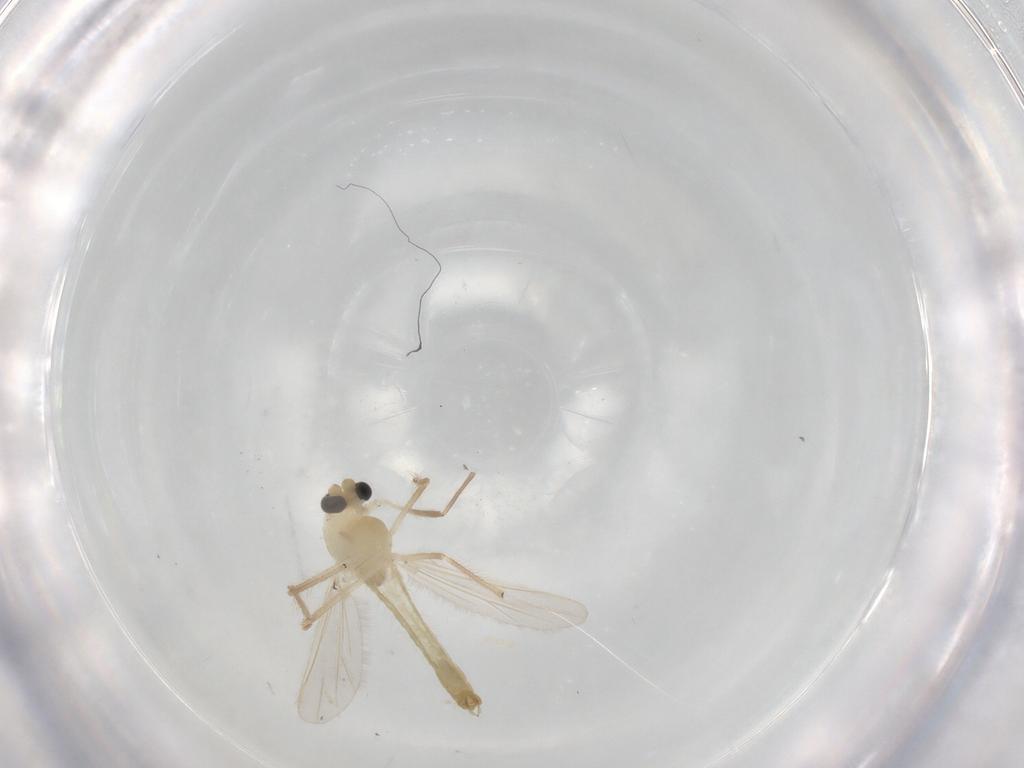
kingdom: Animalia
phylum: Arthropoda
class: Insecta
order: Diptera
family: Chironomidae
